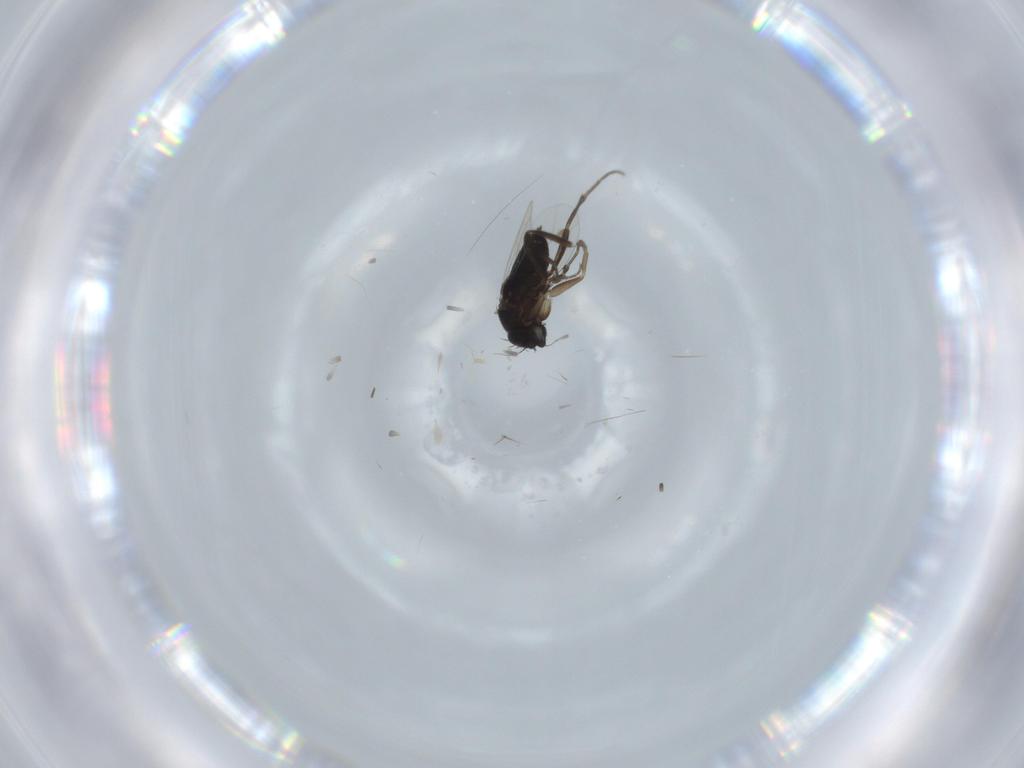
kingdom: Animalia
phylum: Arthropoda
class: Insecta
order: Diptera
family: Phoridae
